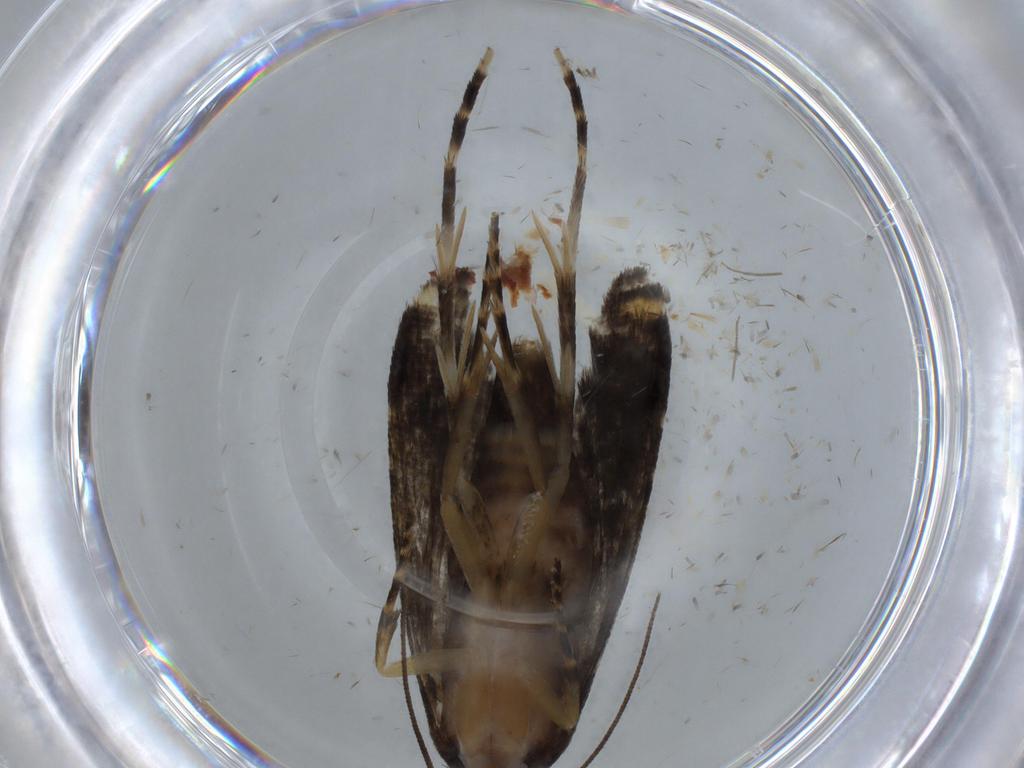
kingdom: Animalia
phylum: Arthropoda
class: Insecta
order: Lepidoptera
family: Glyphipterigidae
